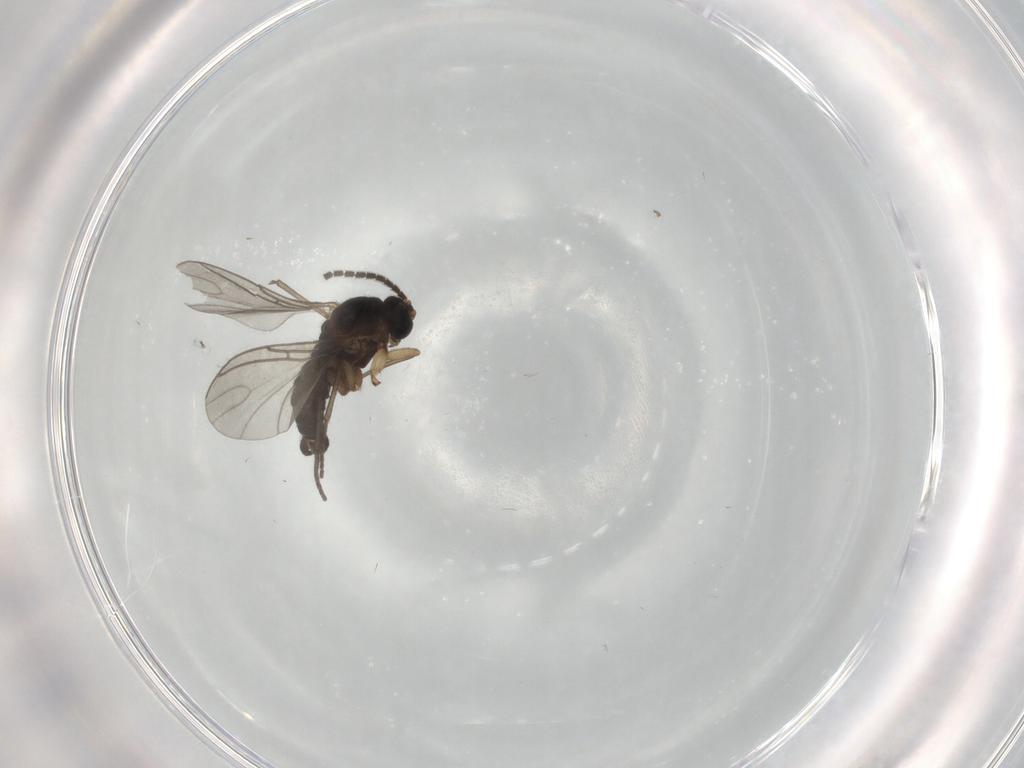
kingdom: Animalia
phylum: Arthropoda
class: Insecta
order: Diptera
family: Sciaridae
